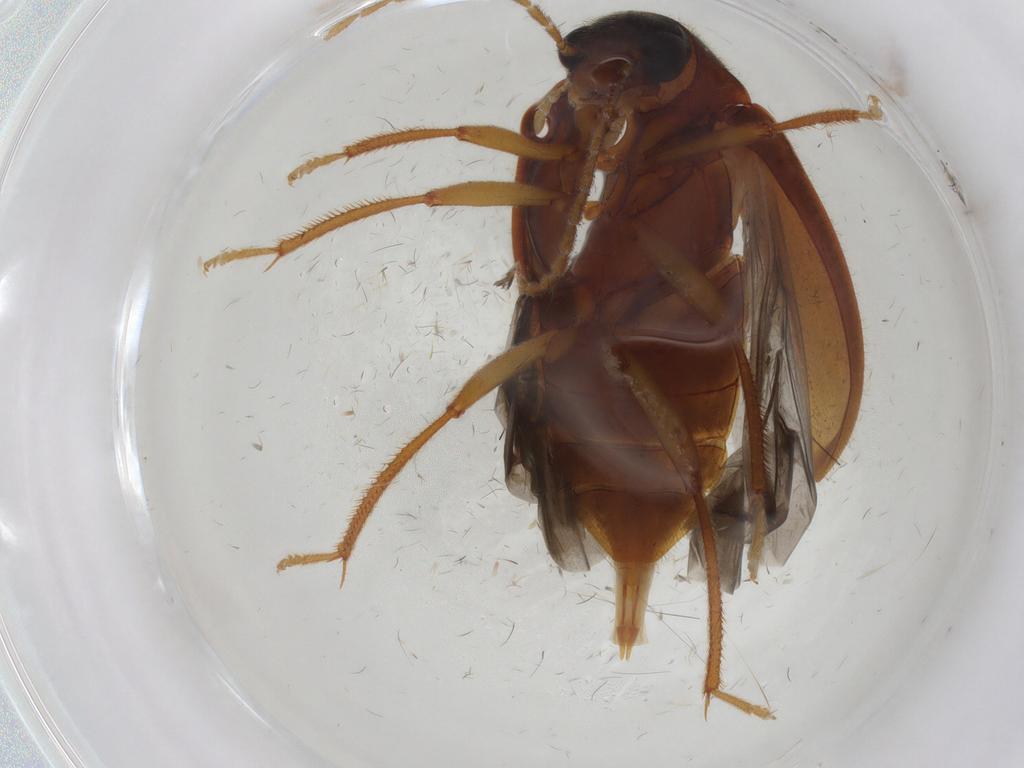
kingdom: Animalia
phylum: Arthropoda
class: Insecta
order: Coleoptera
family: Ptilodactylidae
